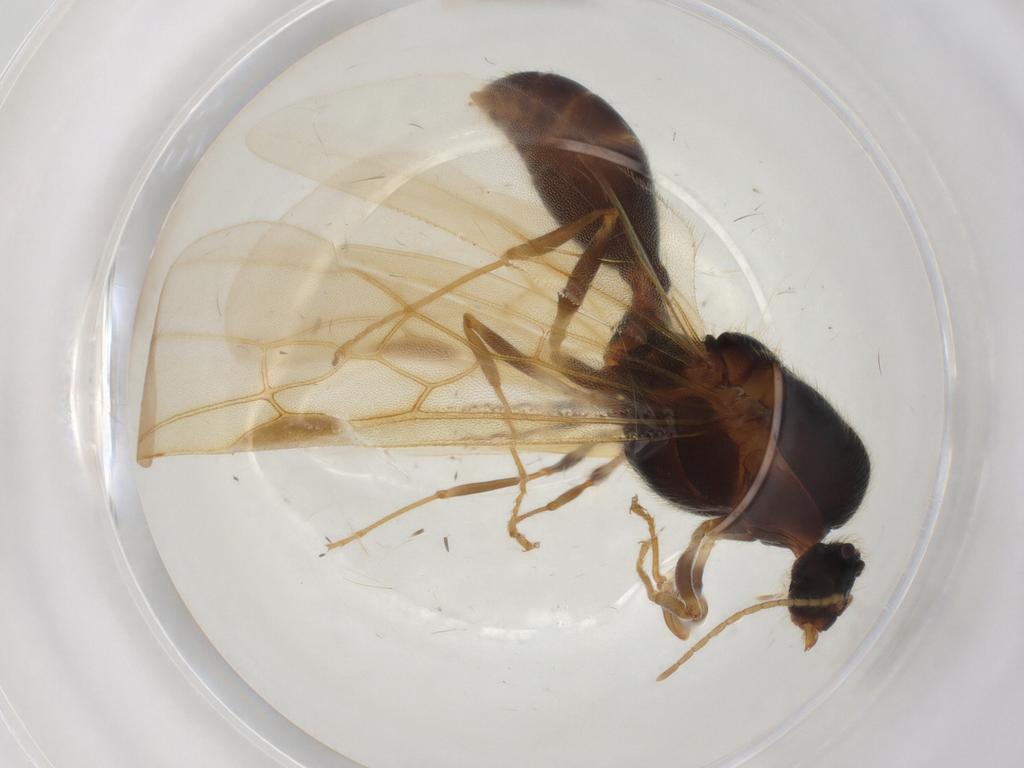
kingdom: Animalia
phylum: Arthropoda
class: Insecta
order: Hymenoptera
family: Formicidae
